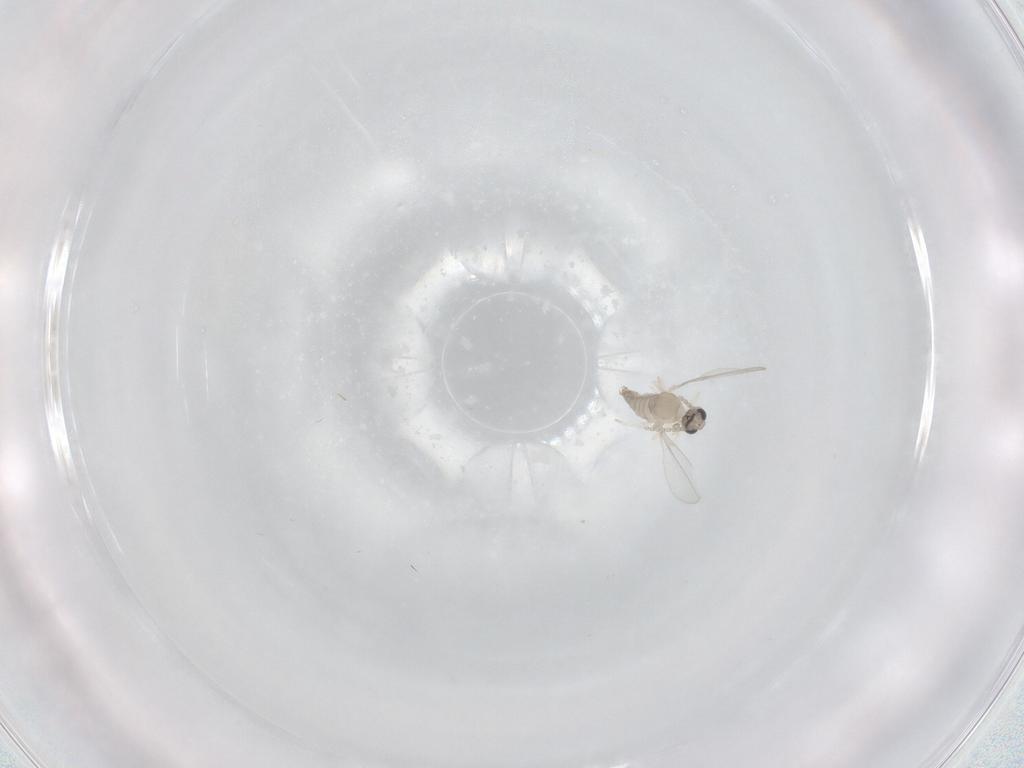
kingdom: Animalia
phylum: Arthropoda
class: Insecta
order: Diptera
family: Cecidomyiidae
